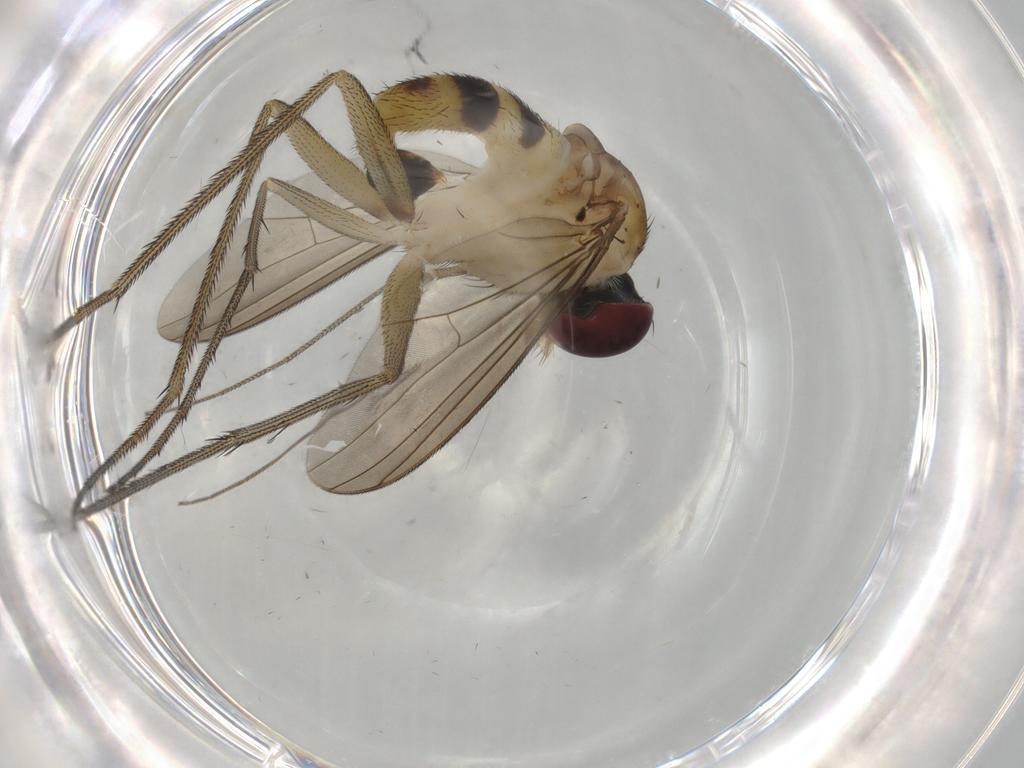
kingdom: Animalia
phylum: Arthropoda
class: Insecta
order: Diptera
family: Dolichopodidae
